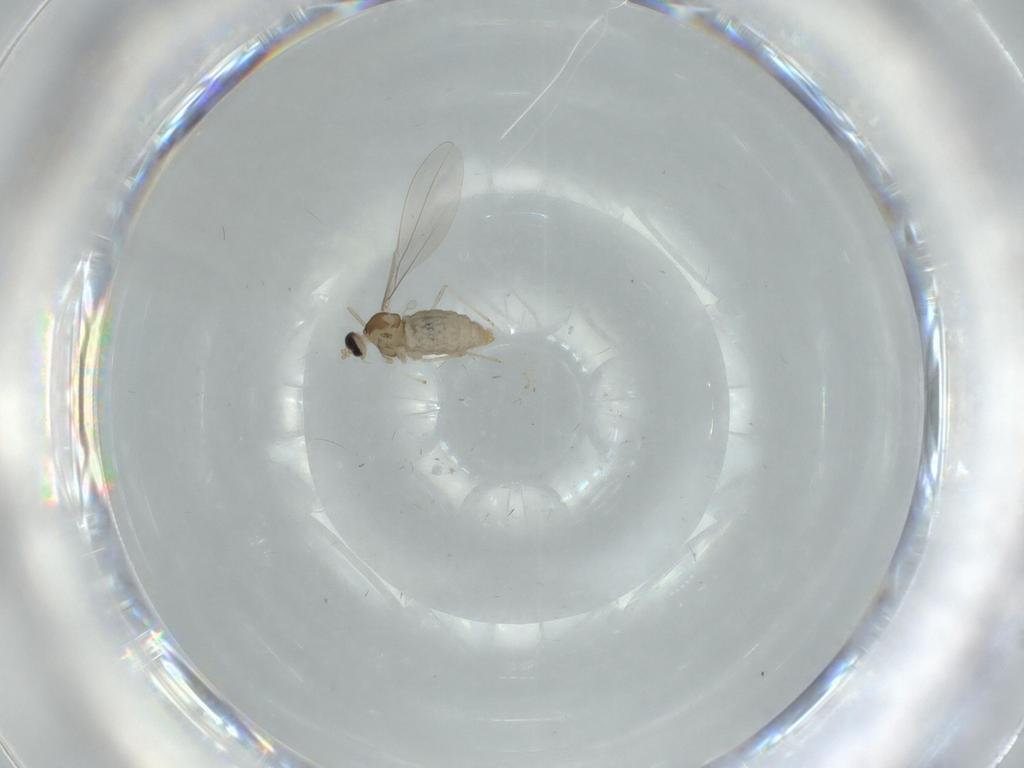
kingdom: Animalia
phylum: Arthropoda
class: Insecta
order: Diptera
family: Cecidomyiidae
